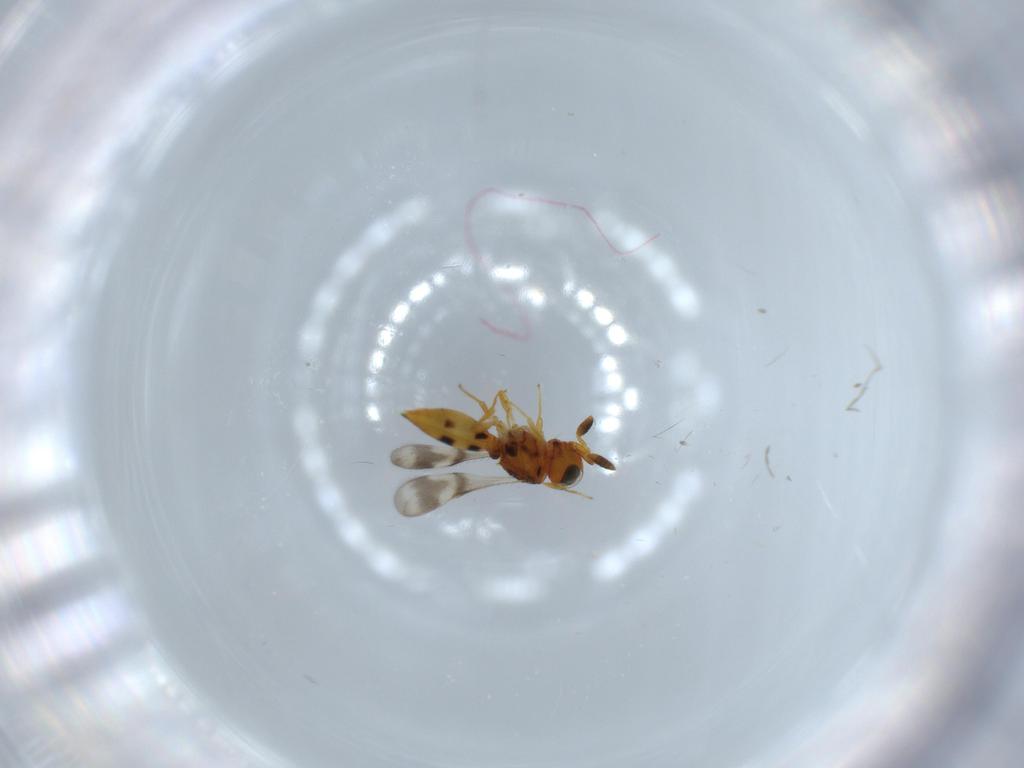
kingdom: Animalia
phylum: Arthropoda
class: Insecta
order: Hymenoptera
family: Scelionidae
